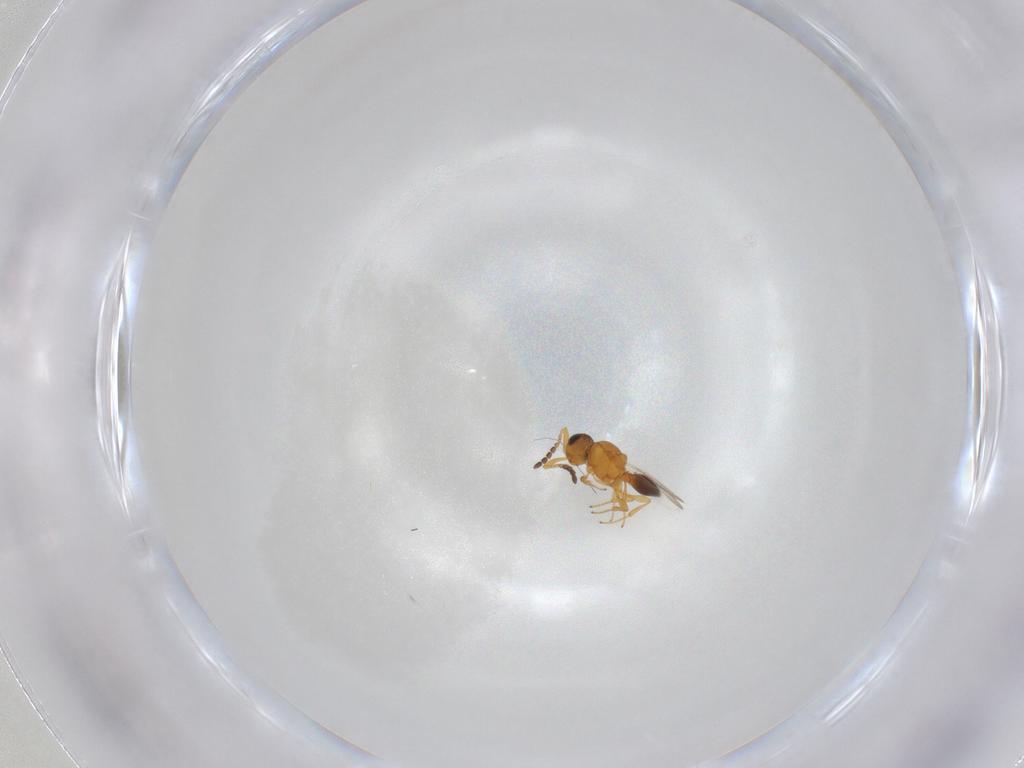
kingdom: Animalia
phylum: Arthropoda
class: Insecta
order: Hymenoptera
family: Platygastridae
